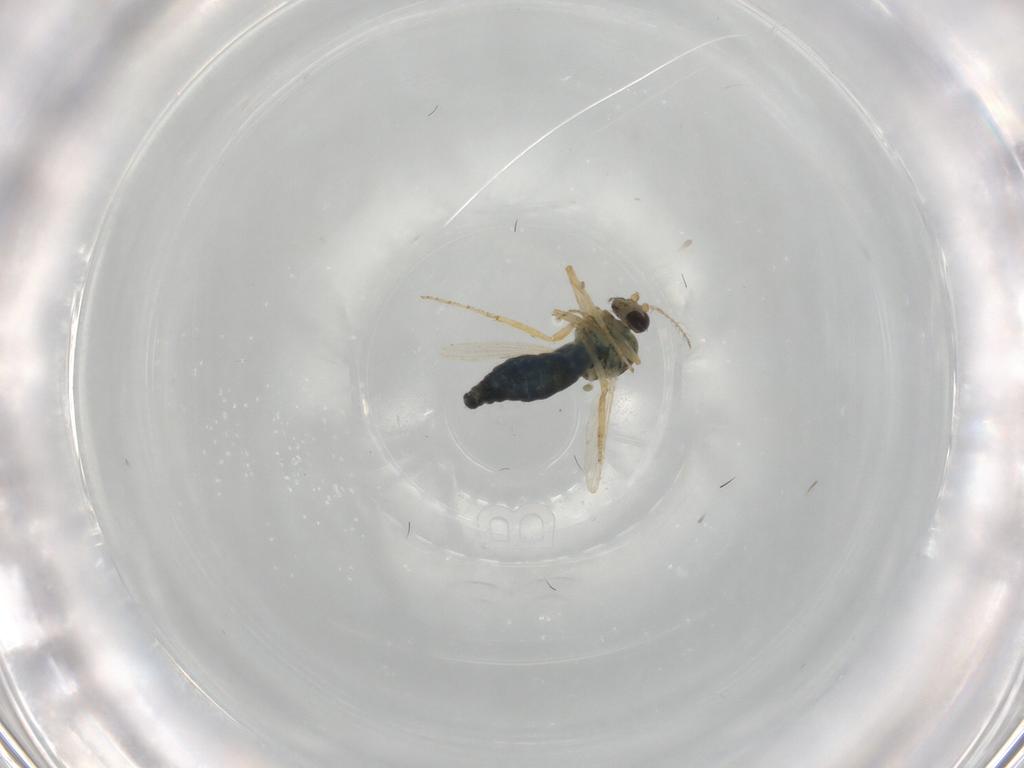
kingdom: Animalia
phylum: Arthropoda
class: Insecta
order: Diptera
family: Ceratopogonidae
